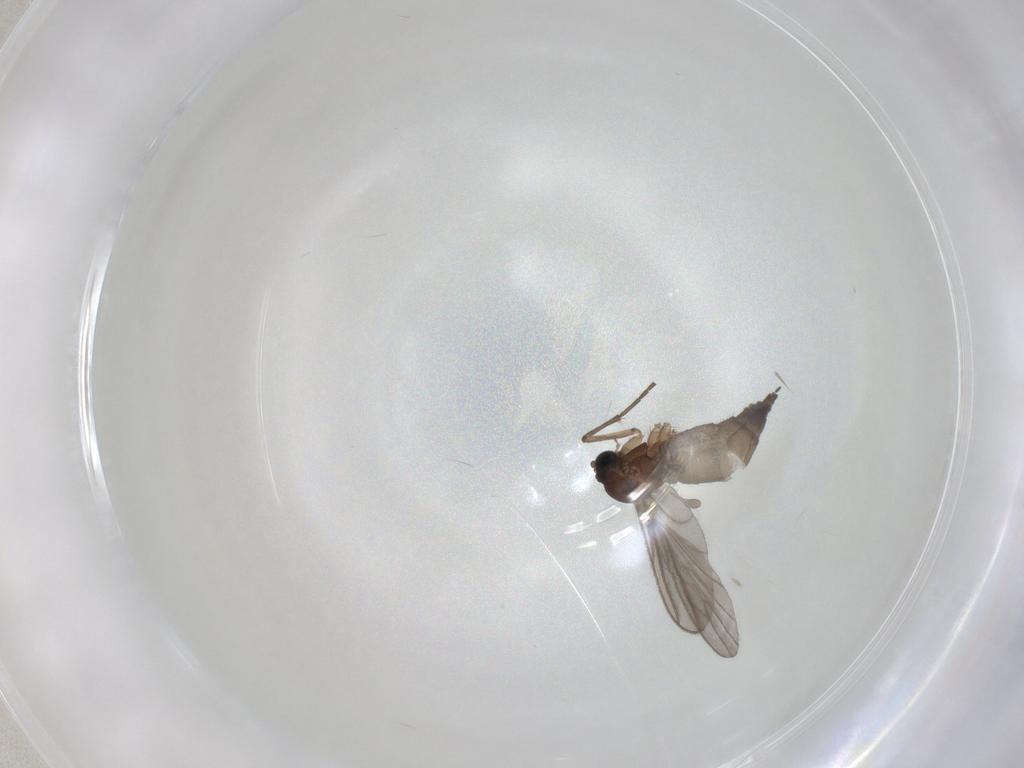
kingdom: Animalia
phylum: Arthropoda
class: Insecta
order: Diptera
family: Sciaridae
